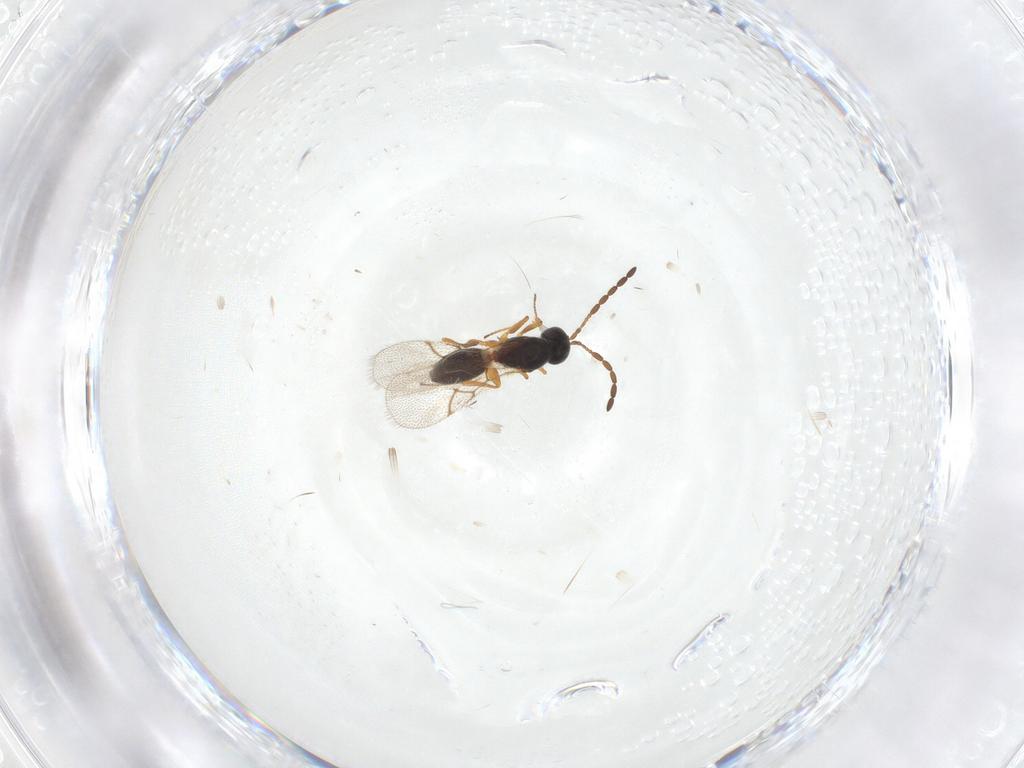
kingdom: Animalia
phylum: Arthropoda
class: Insecta
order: Hymenoptera
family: Figitidae
